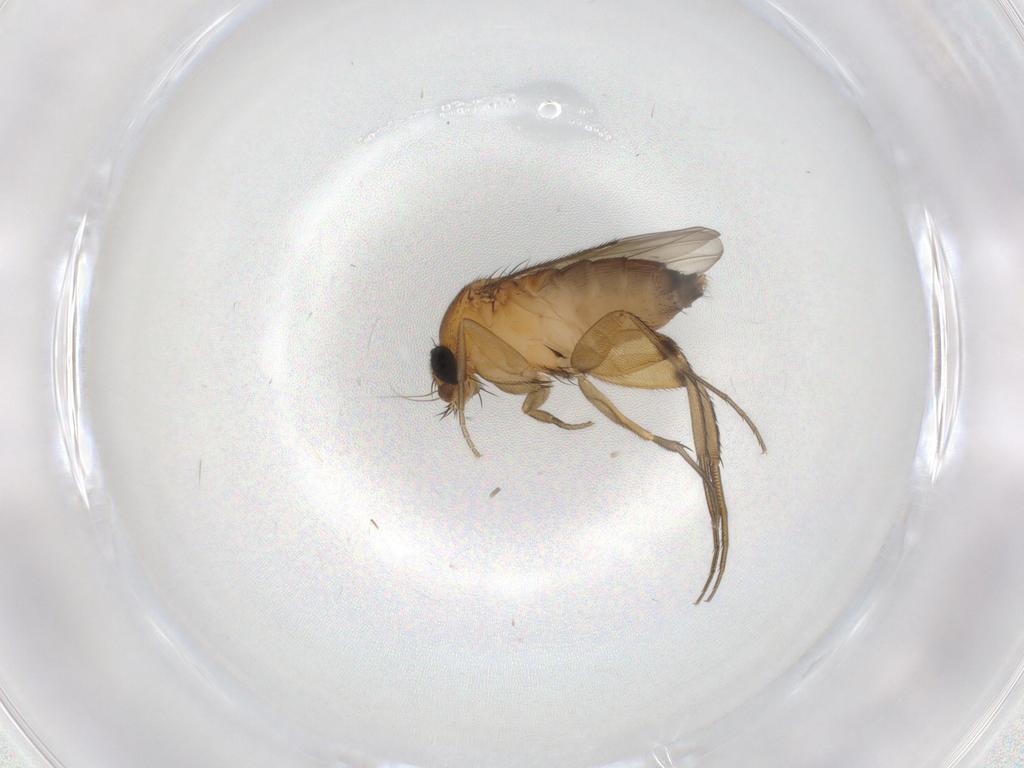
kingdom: Animalia
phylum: Arthropoda
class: Insecta
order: Diptera
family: Phoridae
